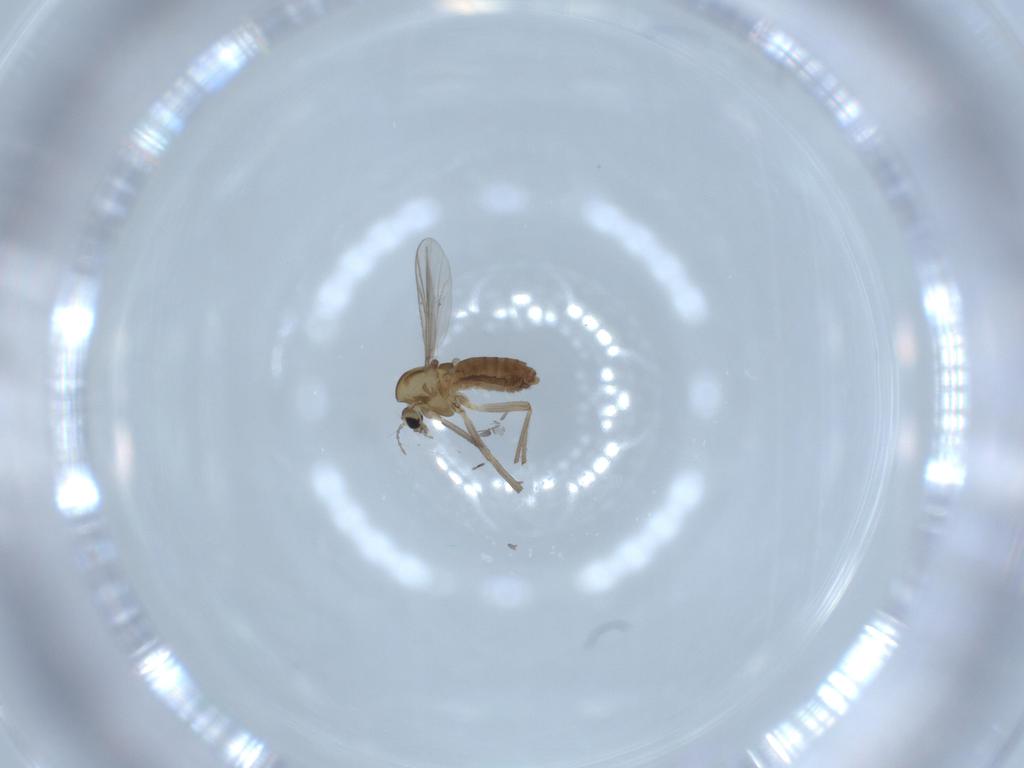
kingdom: Animalia
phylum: Arthropoda
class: Insecta
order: Diptera
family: Chironomidae
